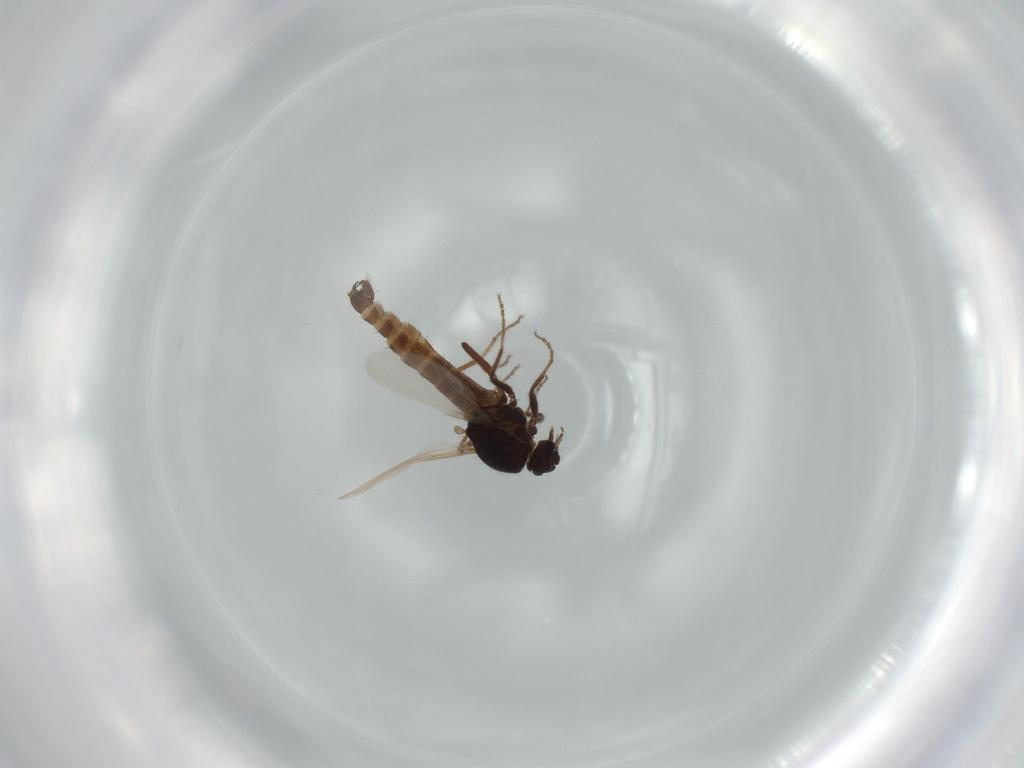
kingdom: Animalia
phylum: Arthropoda
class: Insecta
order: Diptera
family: Ceratopogonidae
